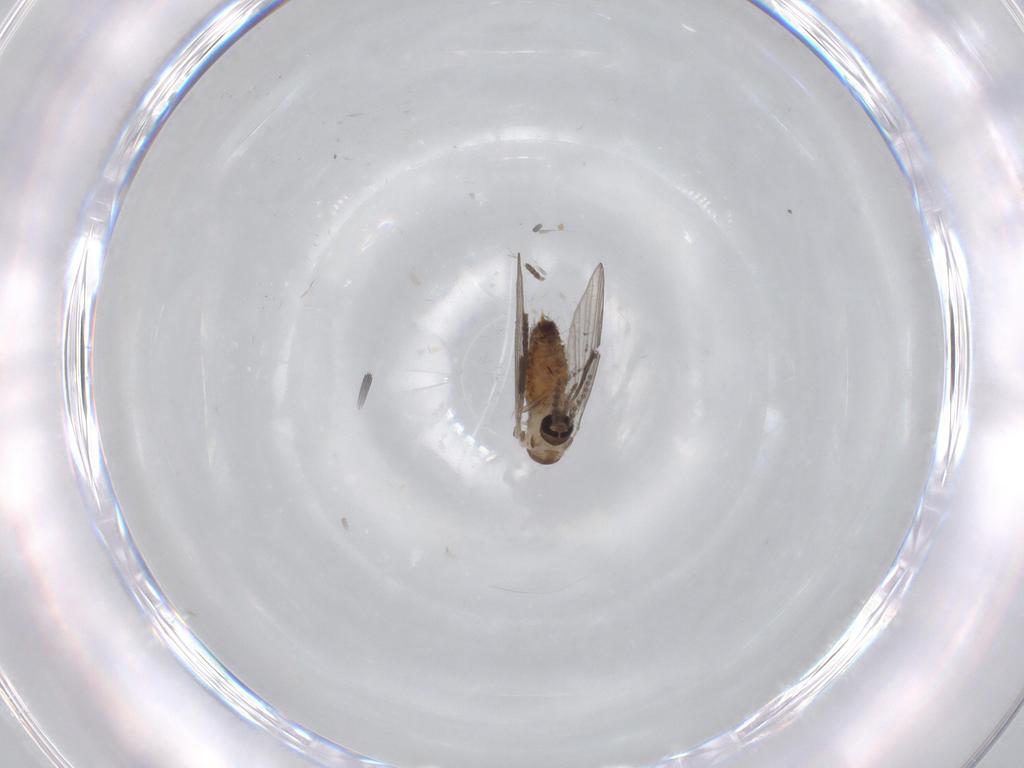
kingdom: Animalia
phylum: Arthropoda
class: Insecta
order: Diptera
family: Psychodidae
